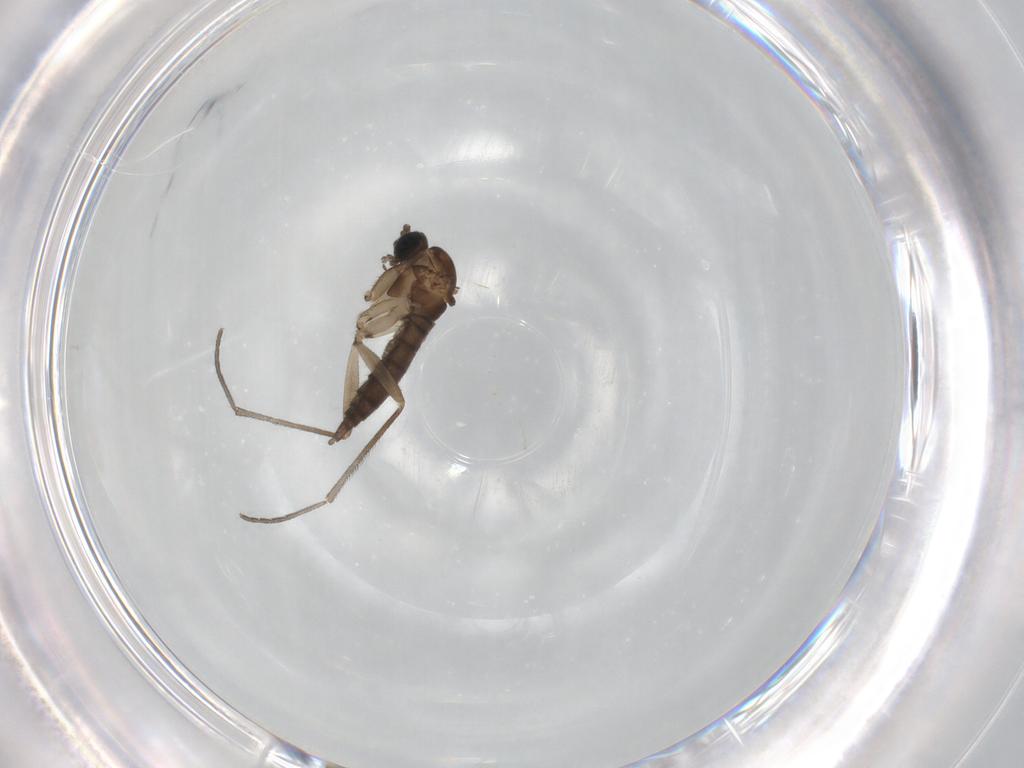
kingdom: Animalia
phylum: Arthropoda
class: Insecta
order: Diptera
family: Sciaridae
